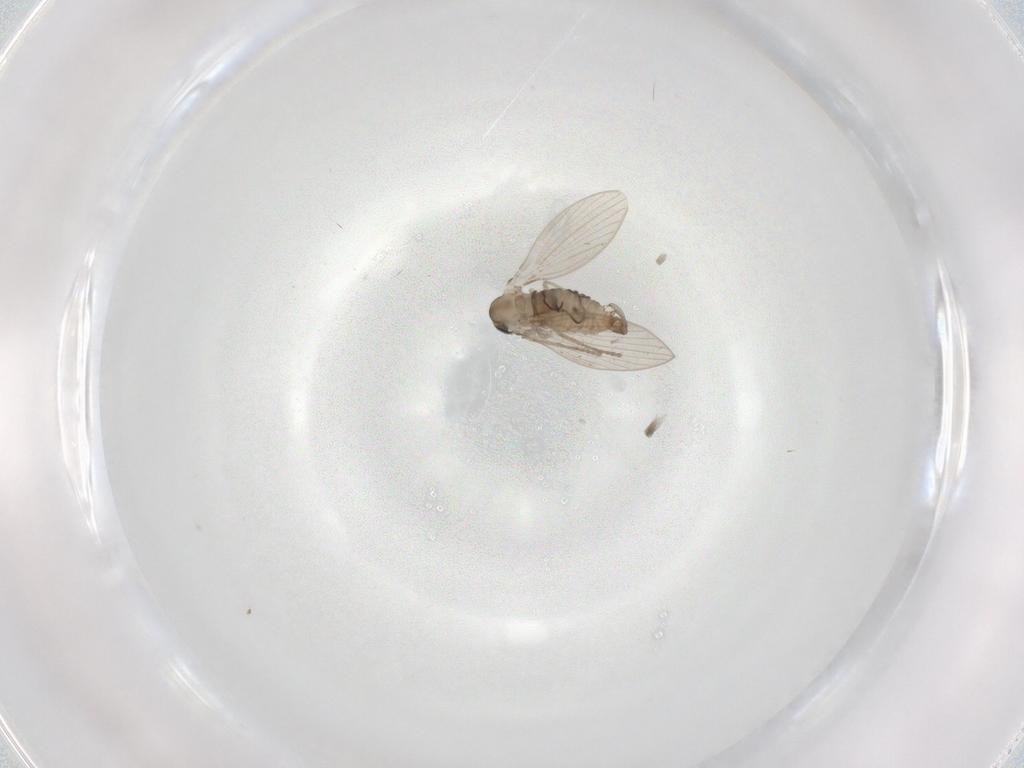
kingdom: Animalia
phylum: Arthropoda
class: Insecta
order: Diptera
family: Psychodidae
